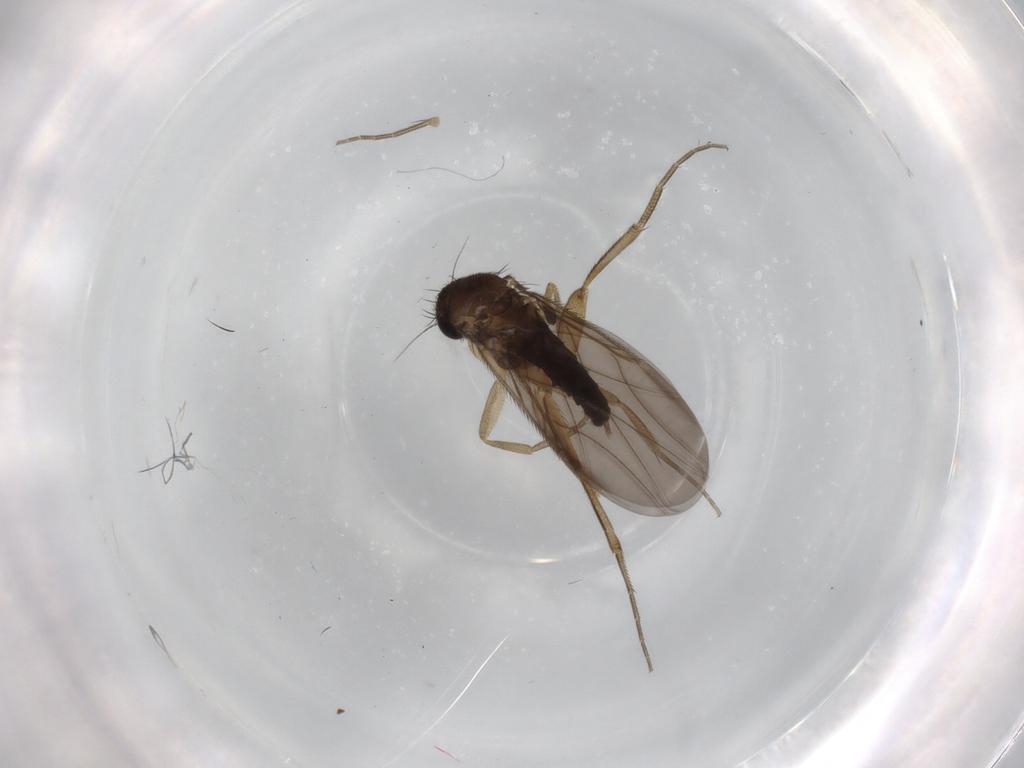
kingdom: Animalia
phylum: Arthropoda
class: Insecta
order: Diptera
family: Phoridae
